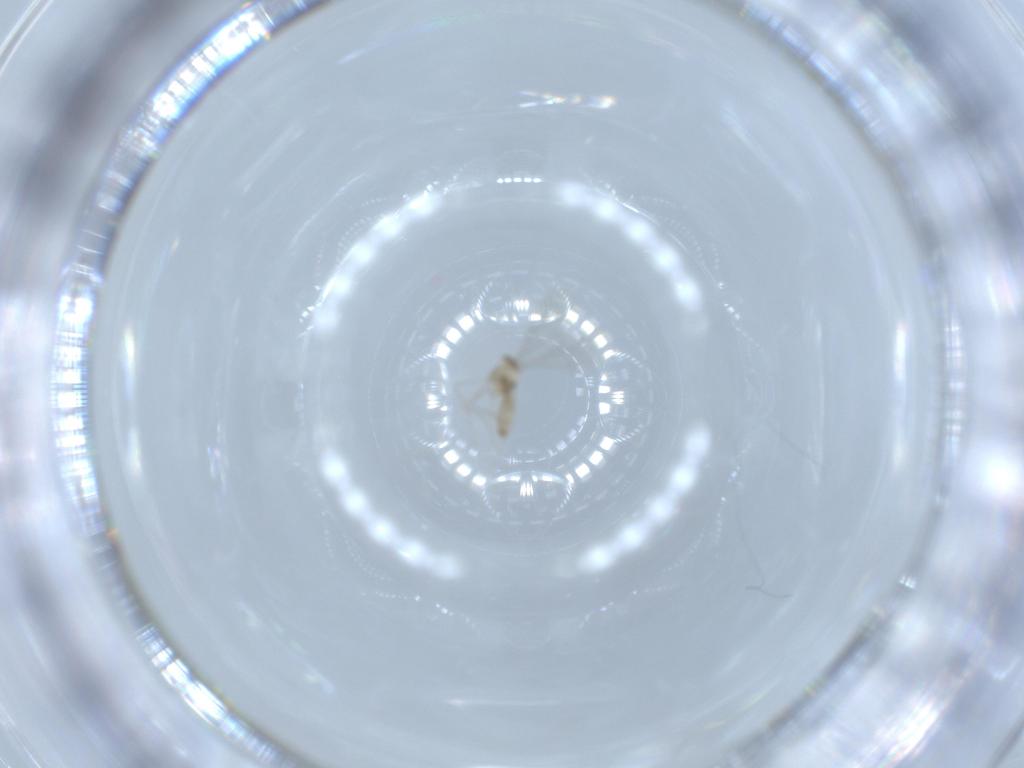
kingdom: Animalia
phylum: Arthropoda
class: Insecta
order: Diptera
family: Cecidomyiidae
